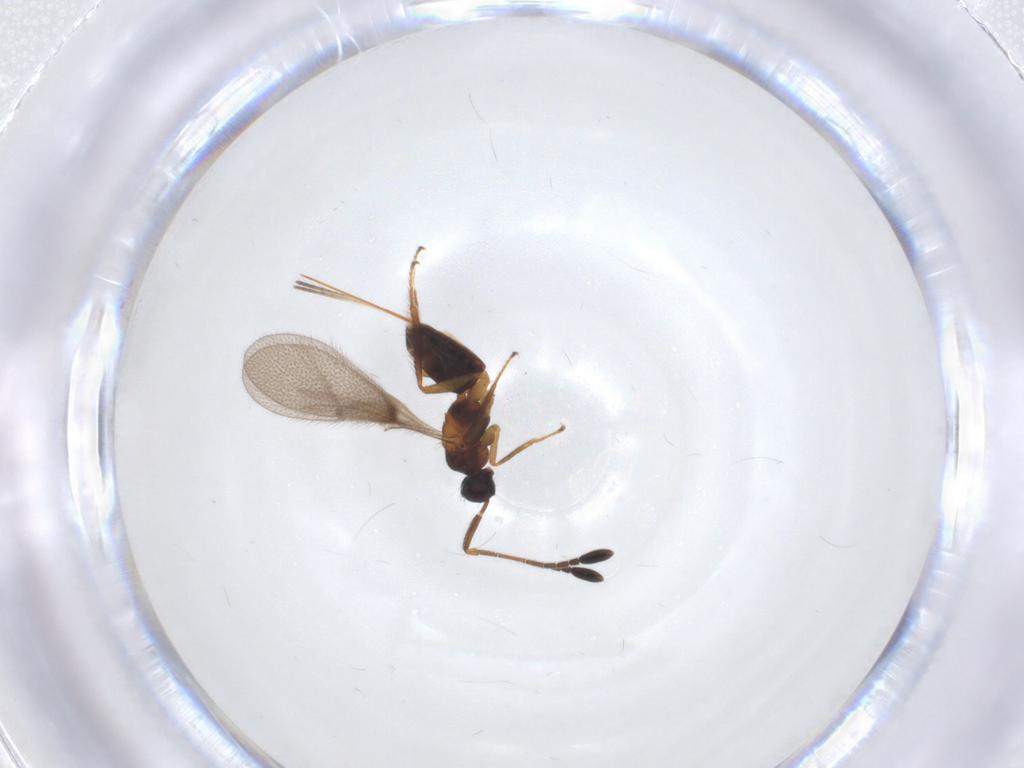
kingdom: Animalia
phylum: Arthropoda
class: Insecta
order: Hymenoptera
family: Mymaridae
